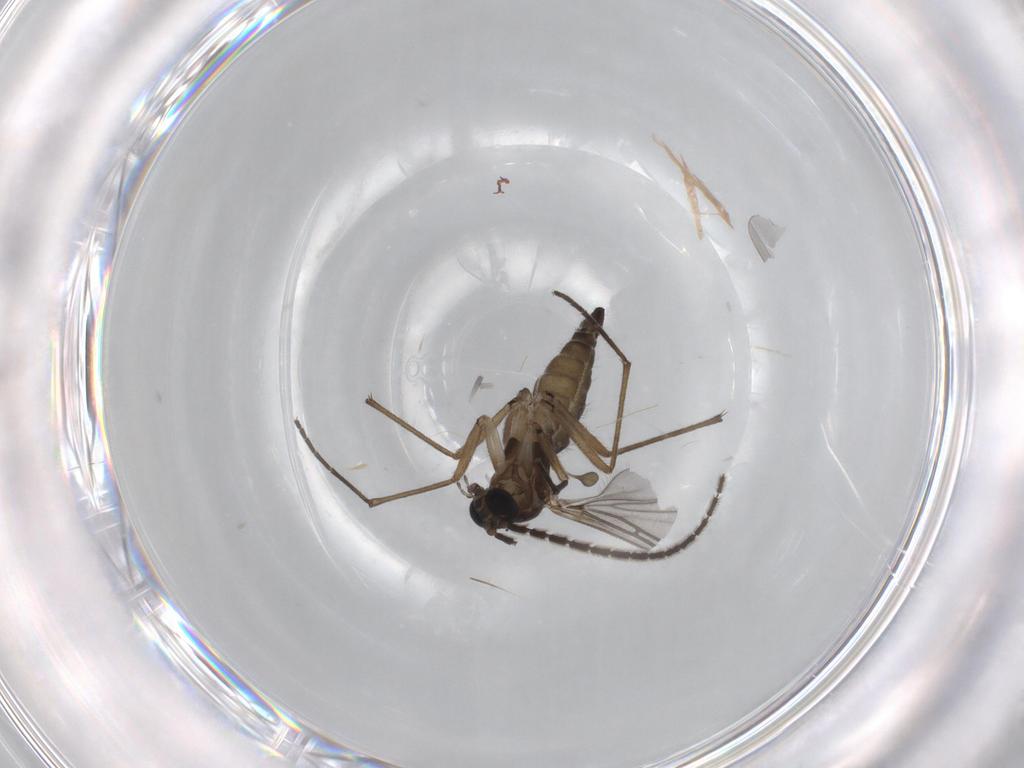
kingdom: Animalia
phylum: Arthropoda
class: Insecta
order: Diptera
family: Sciaridae
